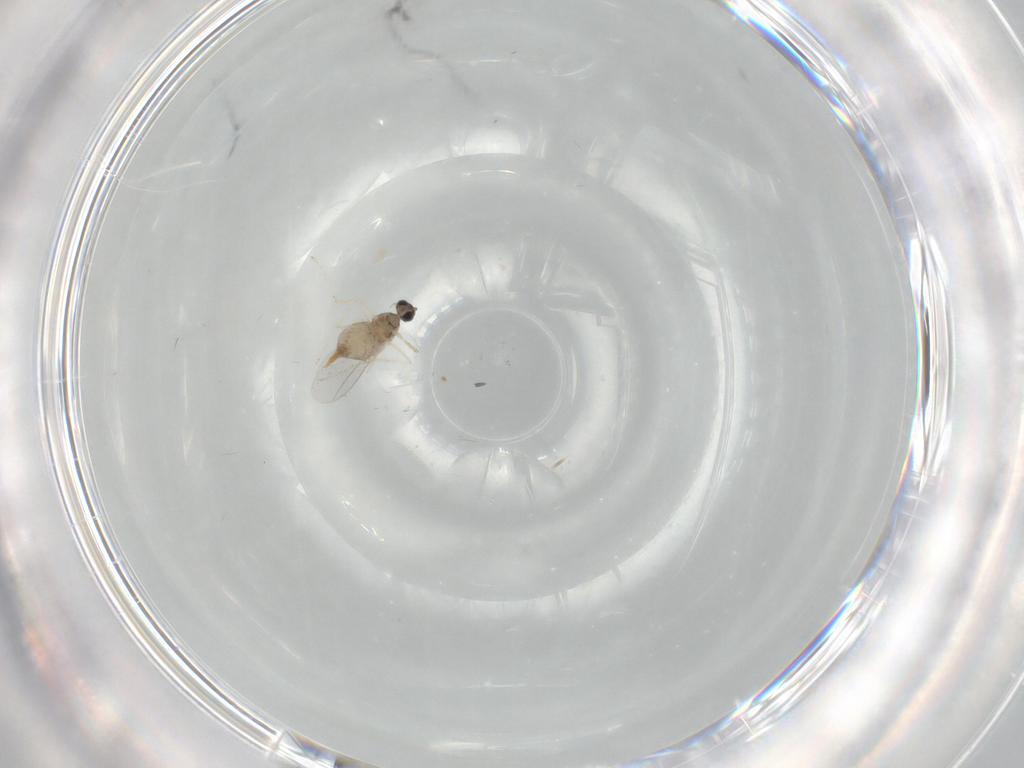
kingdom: Animalia
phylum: Arthropoda
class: Insecta
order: Diptera
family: Cecidomyiidae
